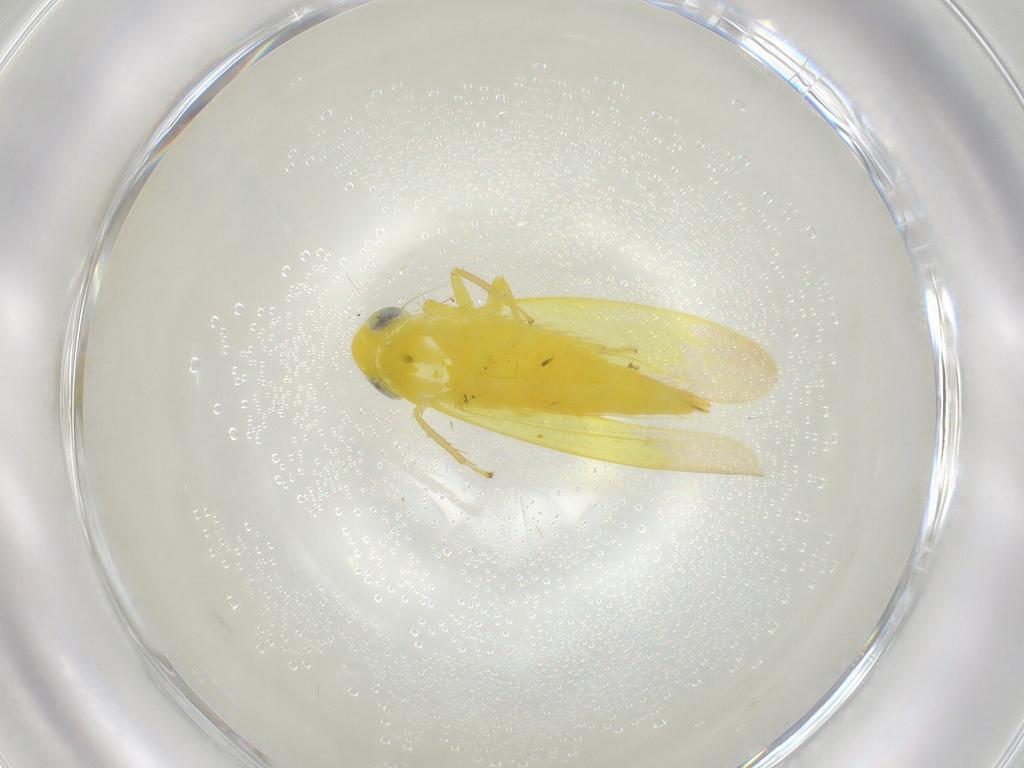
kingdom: Animalia
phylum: Arthropoda
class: Insecta
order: Hemiptera
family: Cicadellidae
